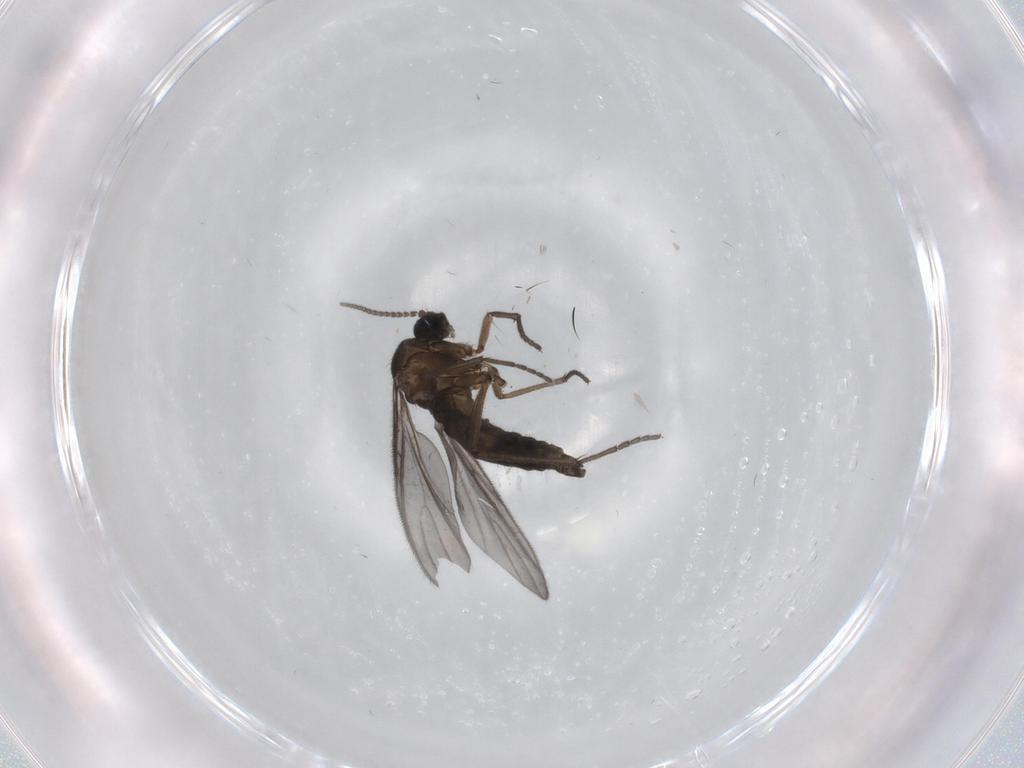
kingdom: Animalia
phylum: Arthropoda
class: Insecta
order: Diptera
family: Sciaridae
